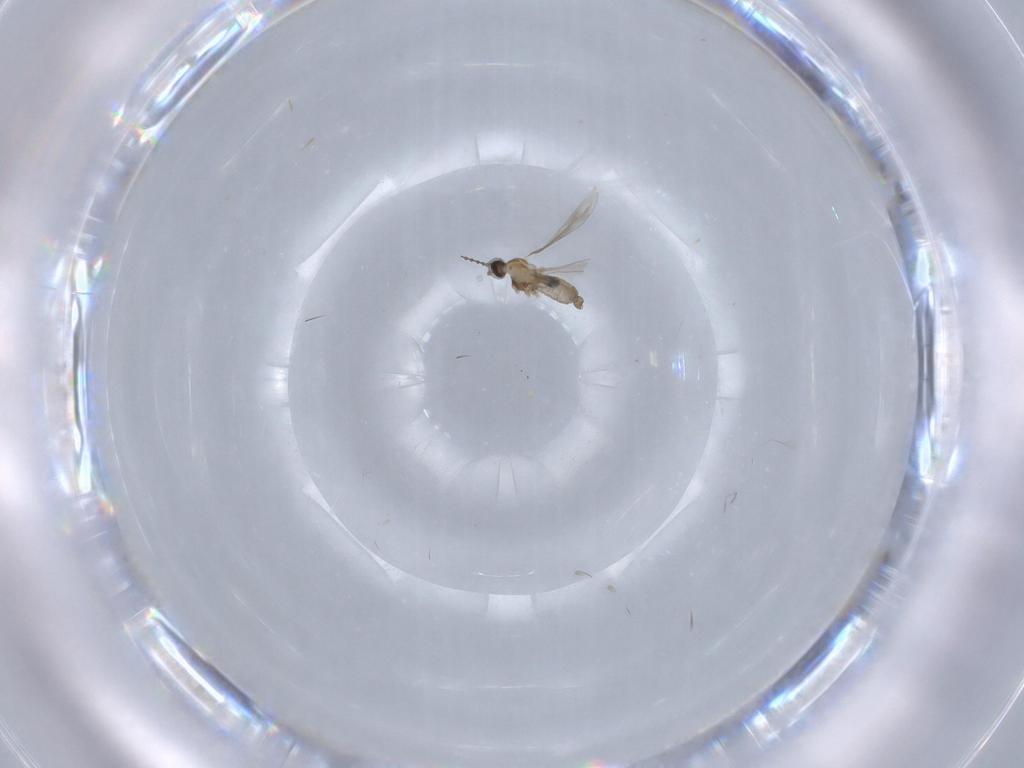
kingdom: Animalia
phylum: Arthropoda
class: Insecta
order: Diptera
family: Cecidomyiidae
